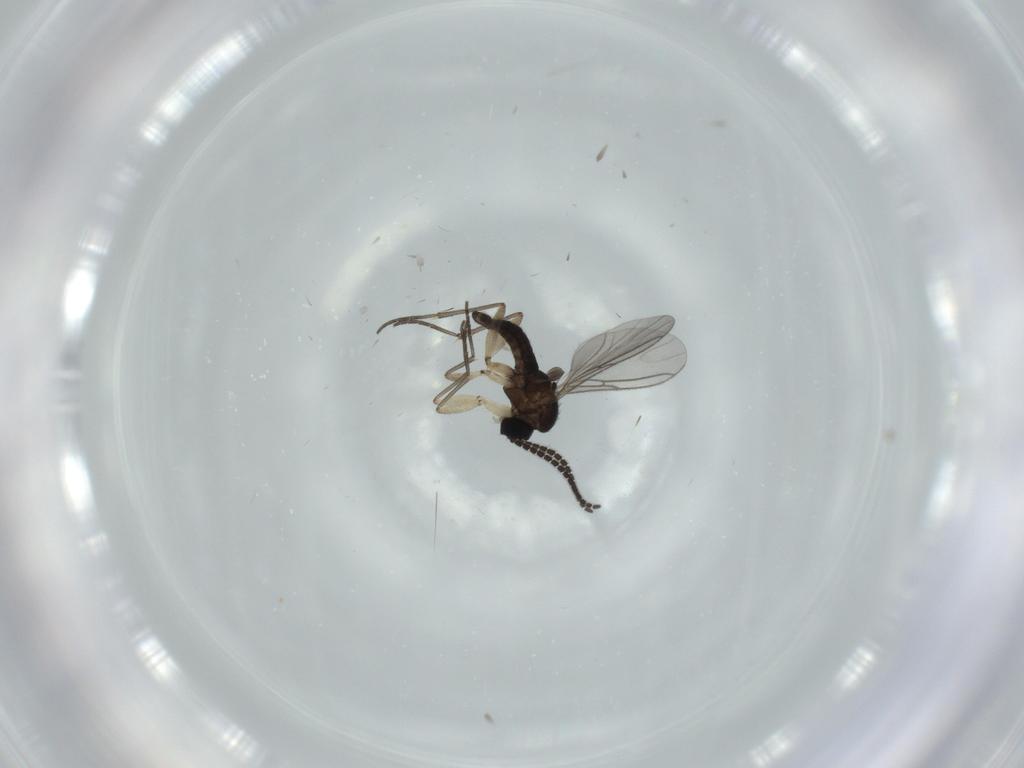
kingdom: Animalia
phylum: Arthropoda
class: Insecta
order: Diptera
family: Sciaridae
